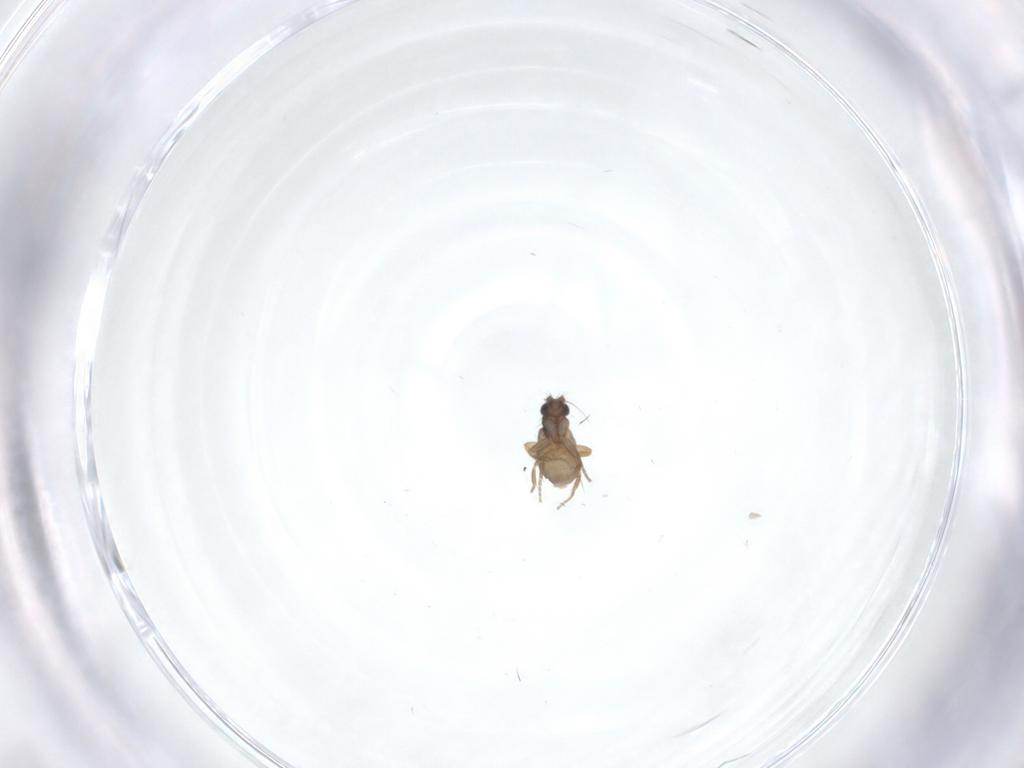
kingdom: Animalia
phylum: Arthropoda
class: Insecta
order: Diptera
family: Phoridae
